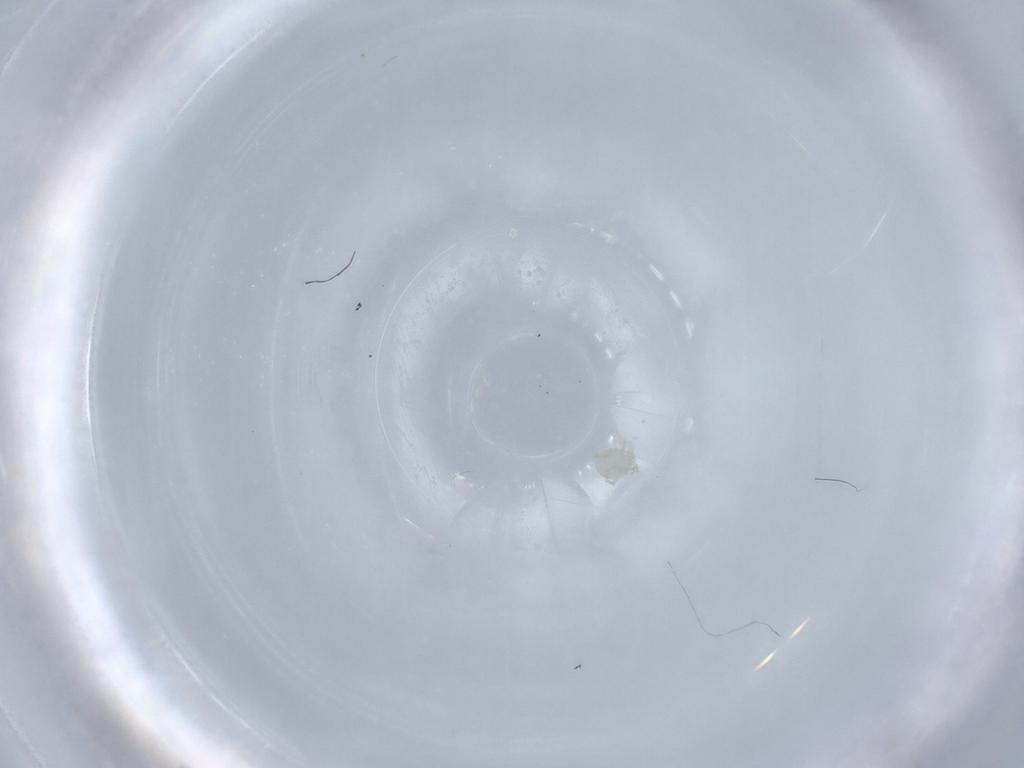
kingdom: Animalia
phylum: Arthropoda
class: Arachnida
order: Trombidiformes
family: Sperchontidae
